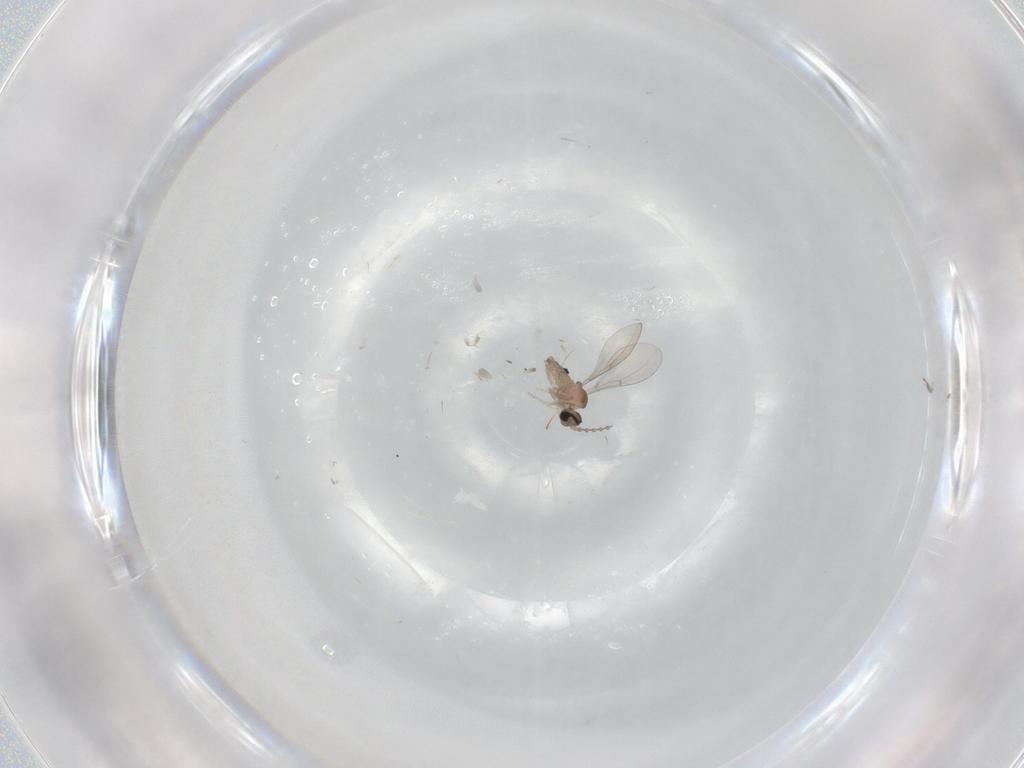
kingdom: Animalia
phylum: Arthropoda
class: Insecta
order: Diptera
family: Cecidomyiidae
